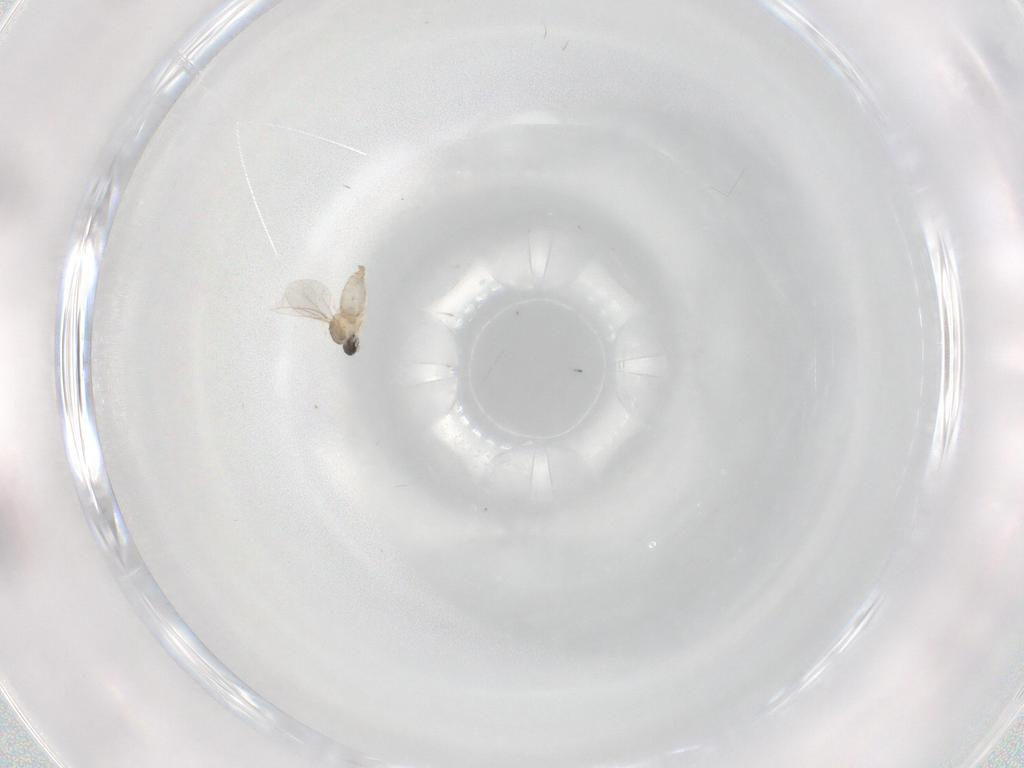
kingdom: Animalia
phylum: Arthropoda
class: Insecta
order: Diptera
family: Cecidomyiidae
